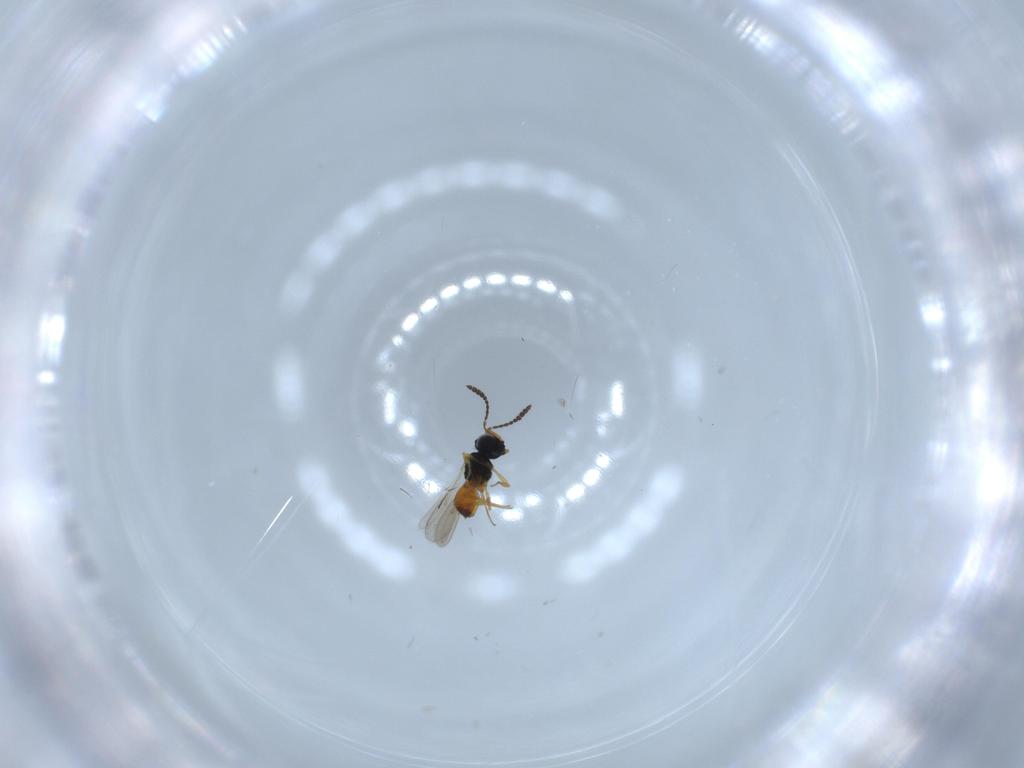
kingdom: Animalia
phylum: Arthropoda
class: Insecta
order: Hymenoptera
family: Scelionidae
